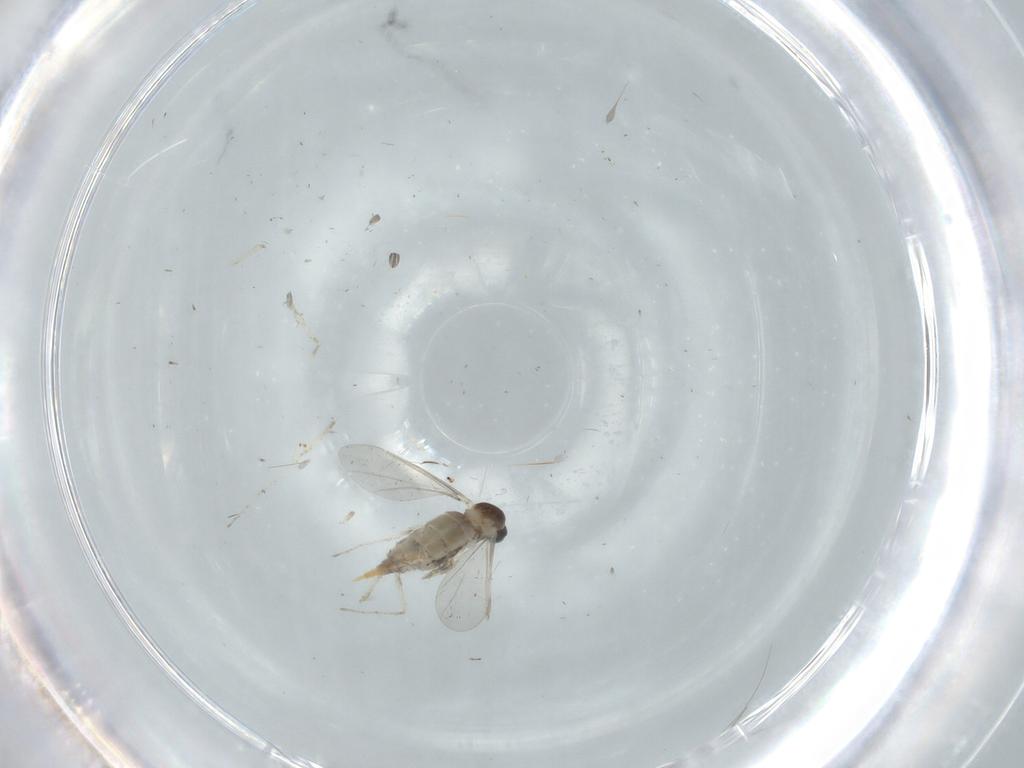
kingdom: Animalia
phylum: Arthropoda
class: Insecta
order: Diptera
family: Cecidomyiidae
